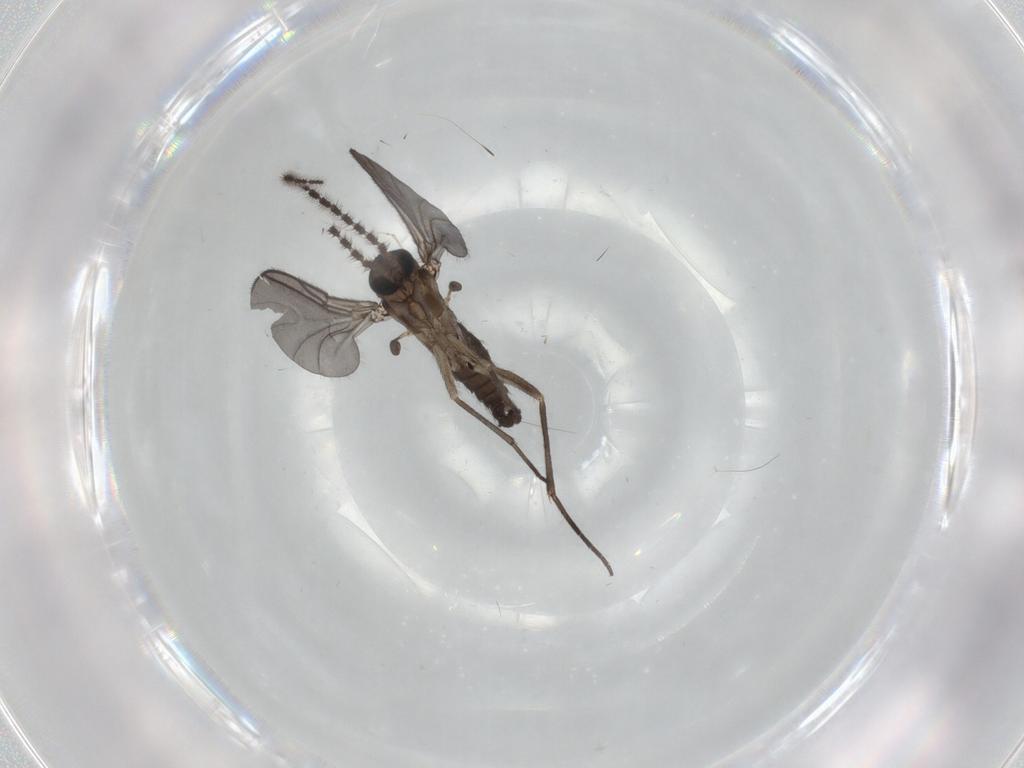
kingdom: Animalia
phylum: Arthropoda
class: Insecta
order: Diptera
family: Sciaridae
